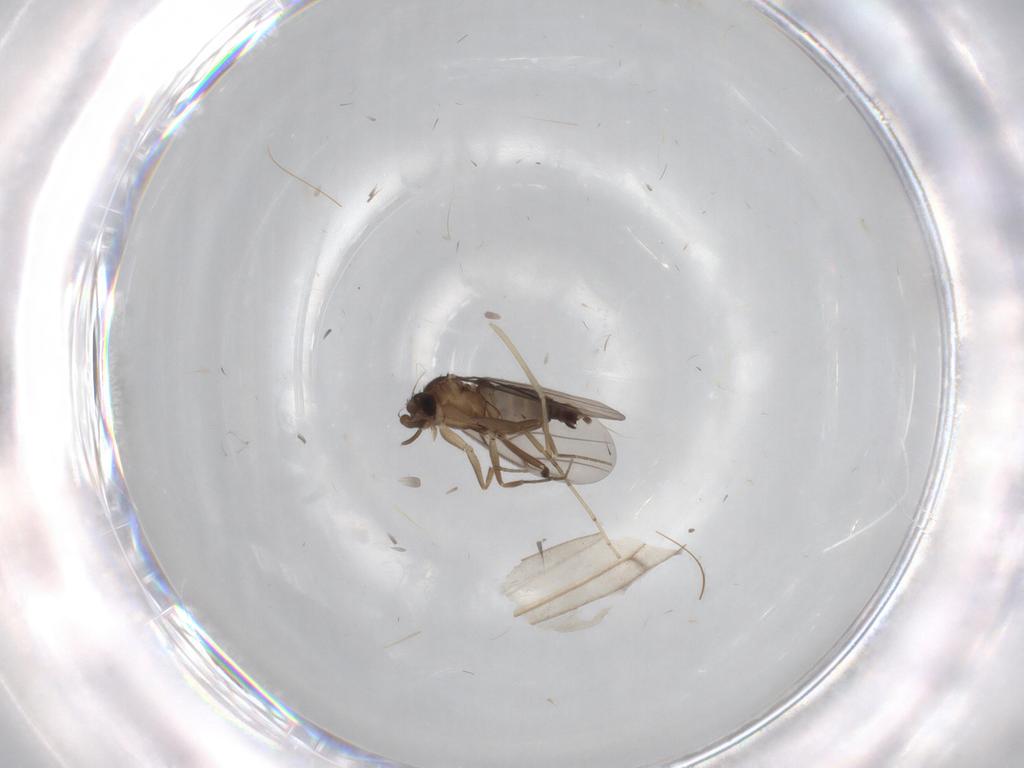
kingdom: Animalia
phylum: Arthropoda
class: Insecta
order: Diptera
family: Phoridae
